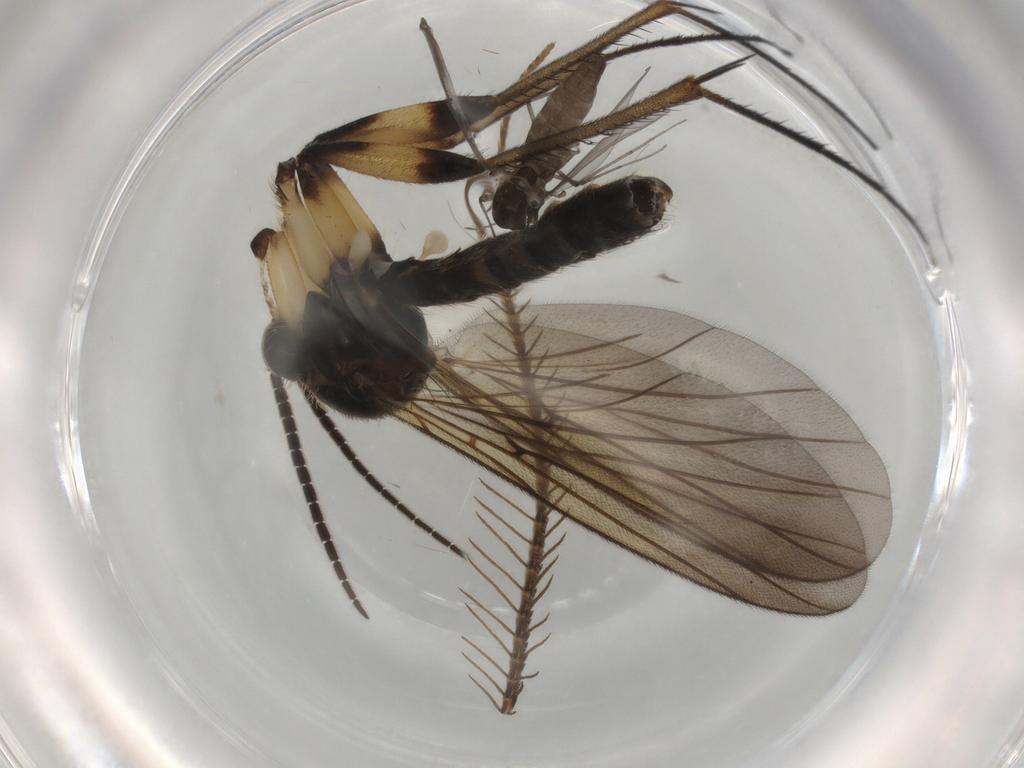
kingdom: Animalia
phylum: Arthropoda
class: Insecta
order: Diptera
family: Mycetophilidae
